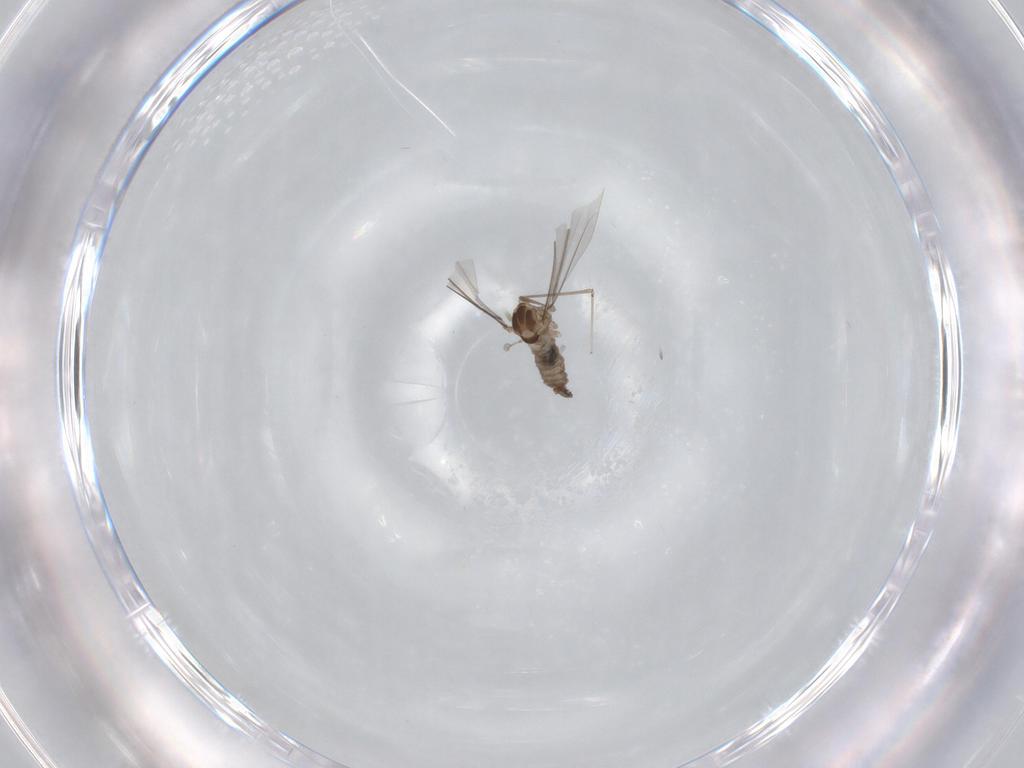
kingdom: Animalia
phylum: Arthropoda
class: Insecta
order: Diptera
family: Cecidomyiidae
